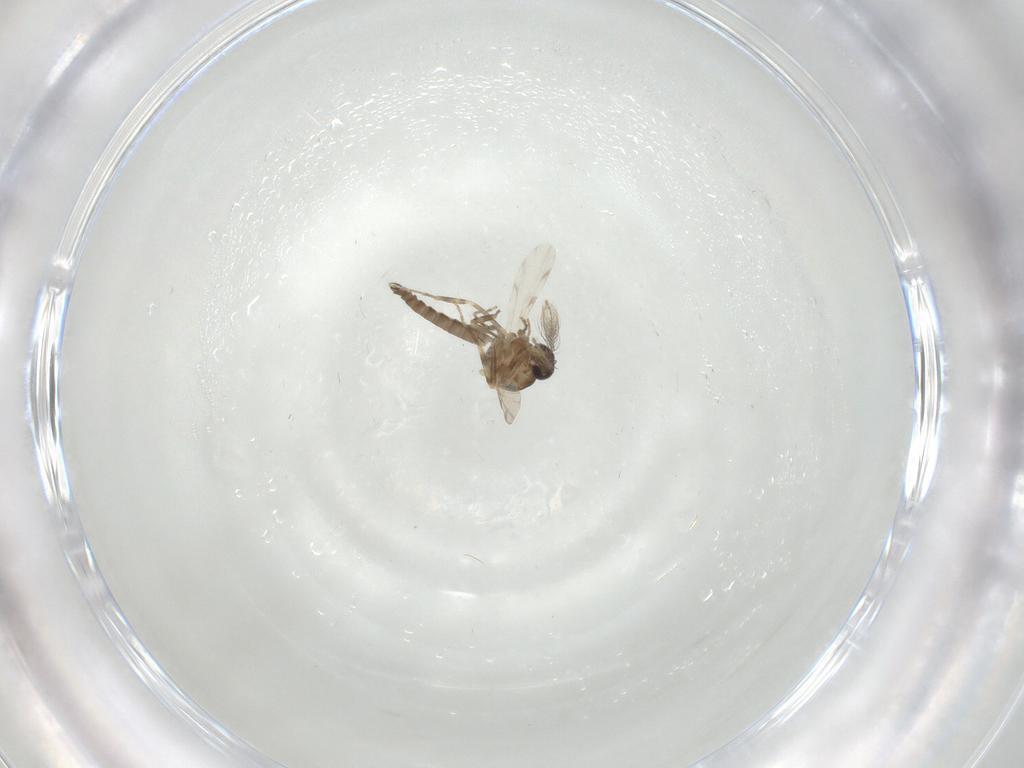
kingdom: Animalia
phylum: Arthropoda
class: Insecta
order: Diptera
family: Ceratopogonidae
